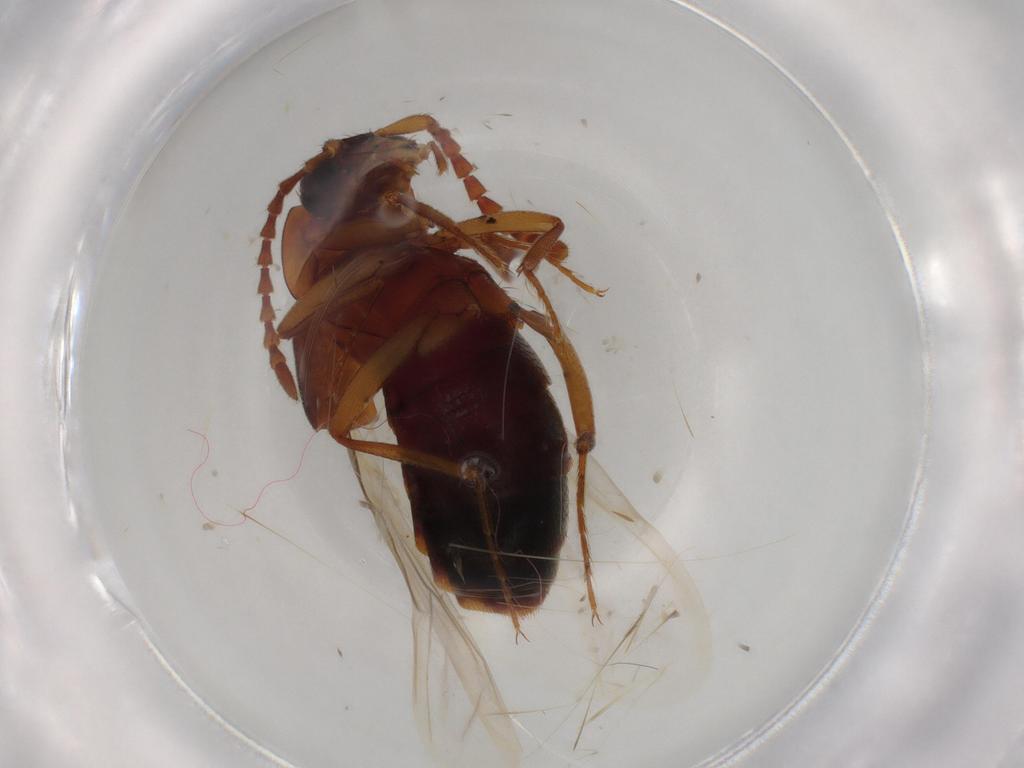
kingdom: Animalia
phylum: Arthropoda
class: Insecta
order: Coleoptera
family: Staphylinidae
